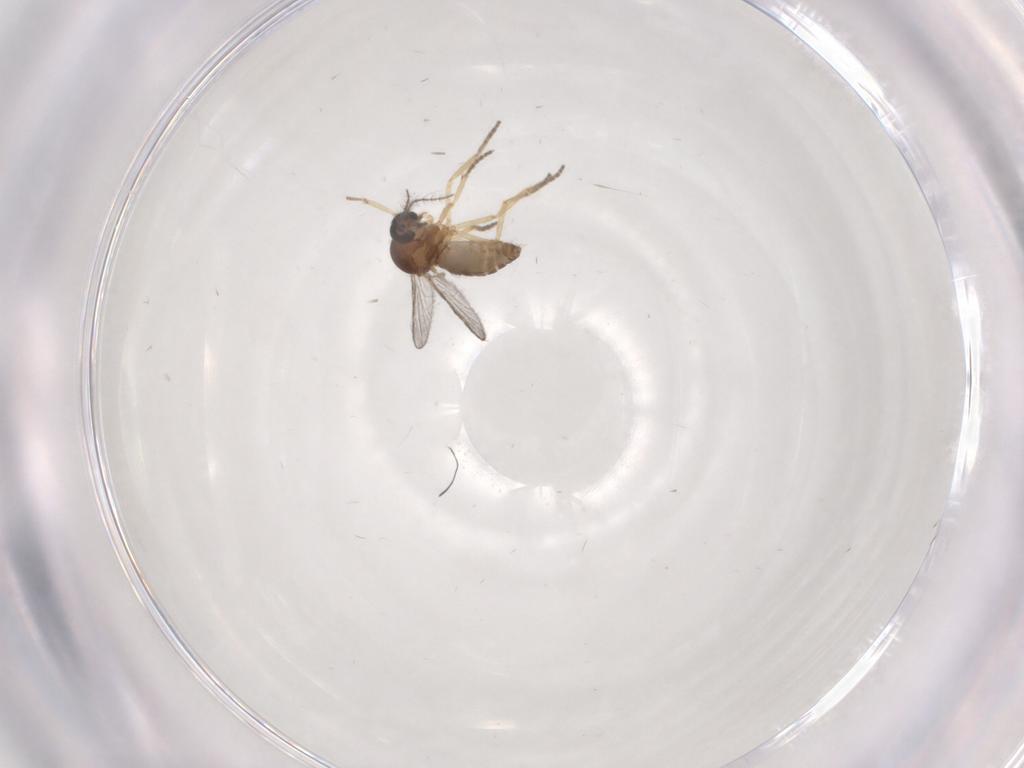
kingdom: Animalia
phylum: Arthropoda
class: Insecta
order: Diptera
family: Ceratopogonidae
